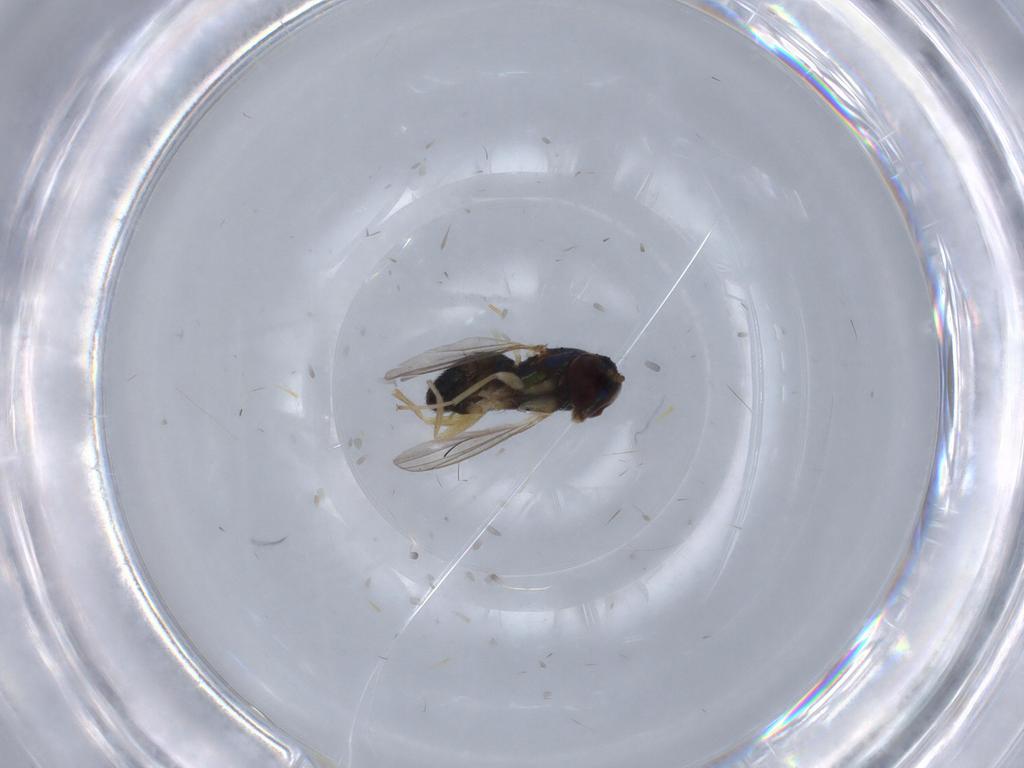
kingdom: Animalia
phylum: Arthropoda
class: Insecta
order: Diptera
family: Dolichopodidae
